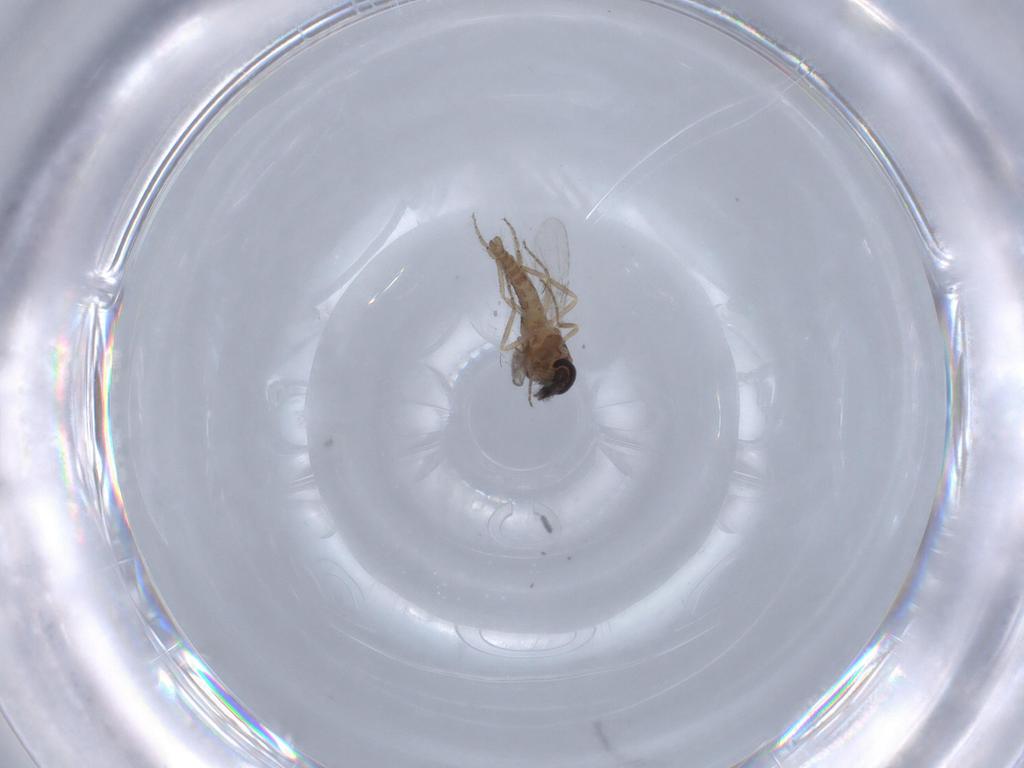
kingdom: Animalia
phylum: Arthropoda
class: Insecta
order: Diptera
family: Ceratopogonidae
